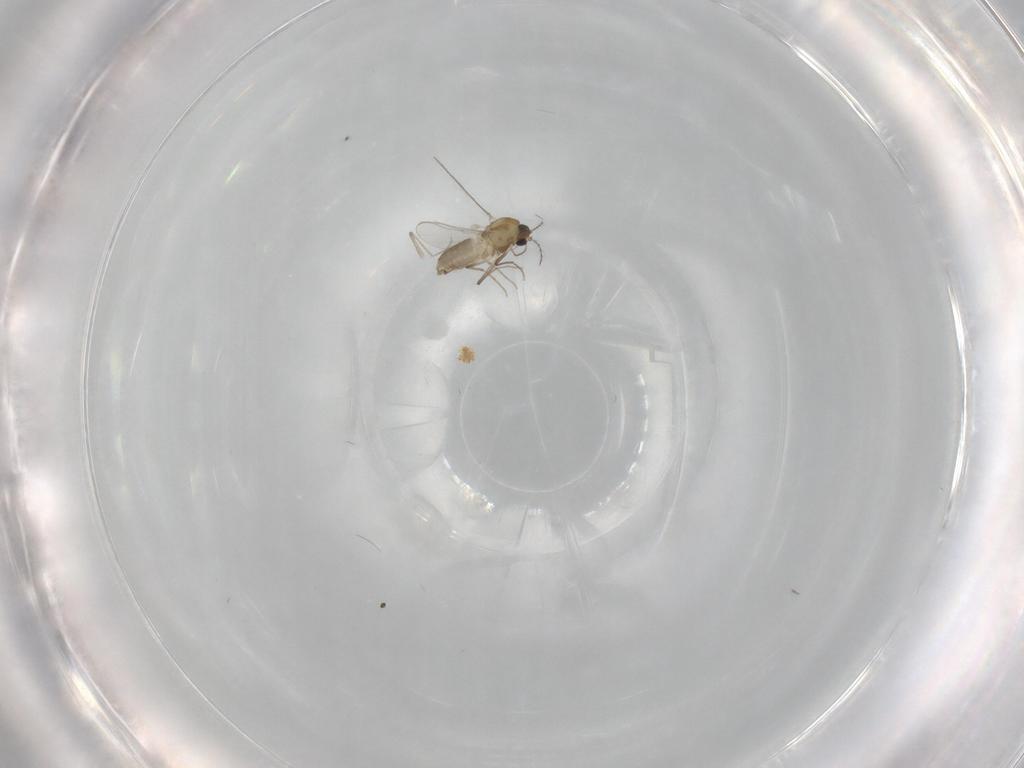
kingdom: Animalia
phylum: Arthropoda
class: Insecta
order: Diptera
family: Chironomidae
